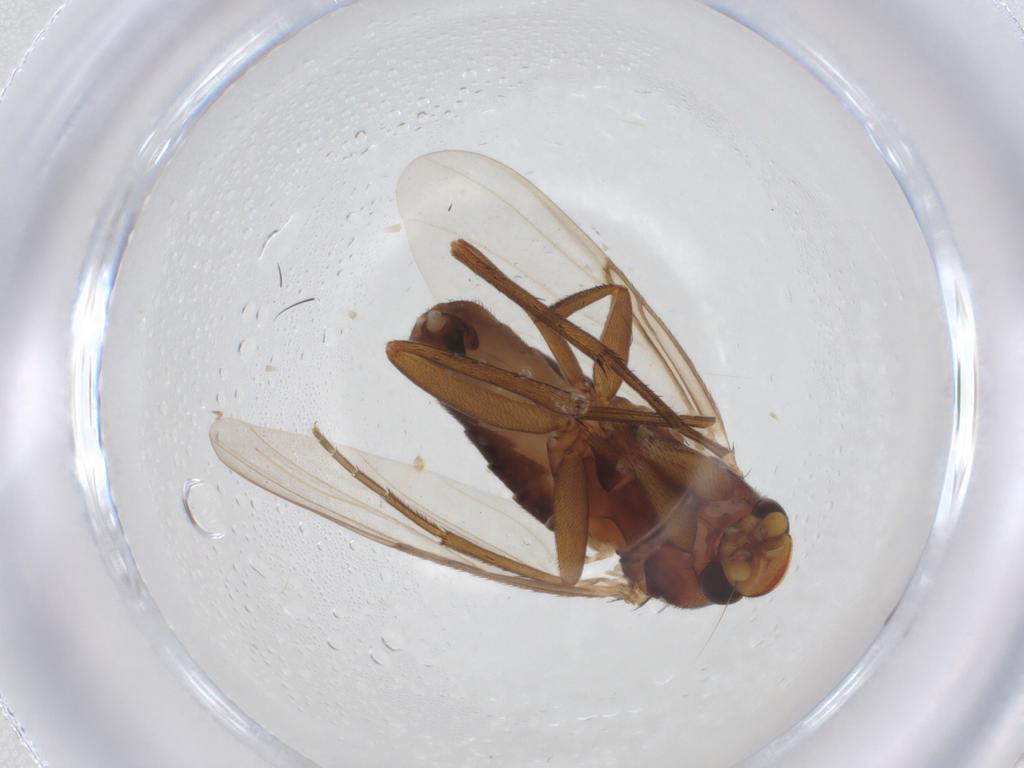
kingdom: Animalia
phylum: Arthropoda
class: Insecta
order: Diptera
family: Phoridae
